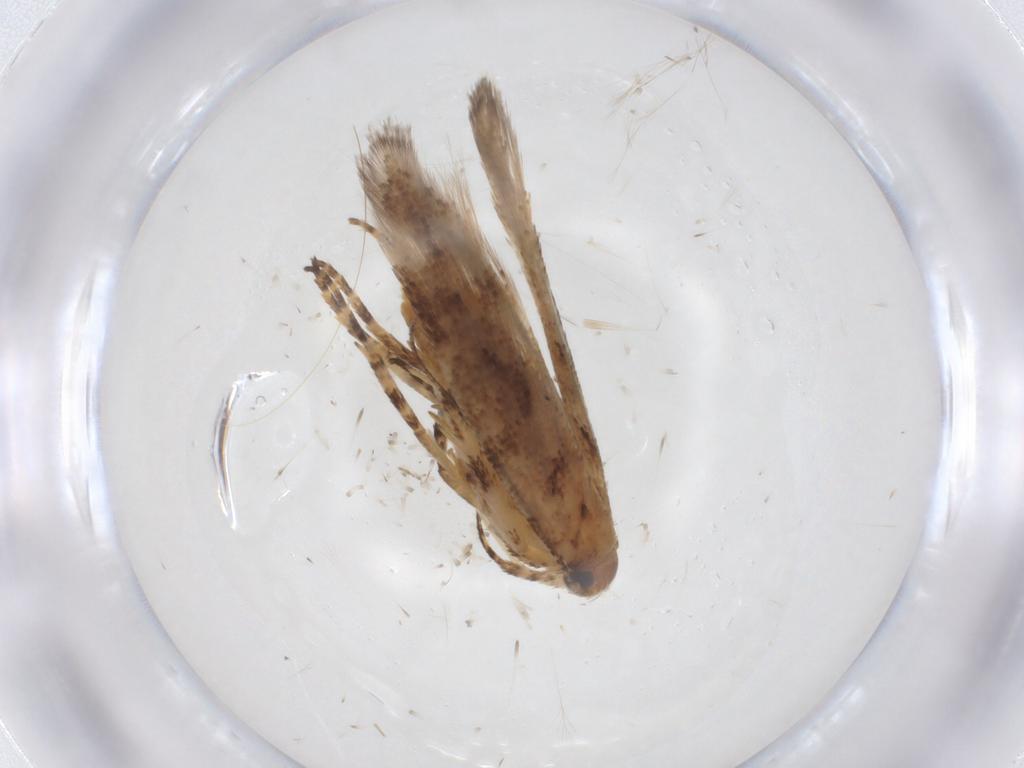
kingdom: Animalia
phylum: Arthropoda
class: Insecta
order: Lepidoptera
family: Gelechiidae
